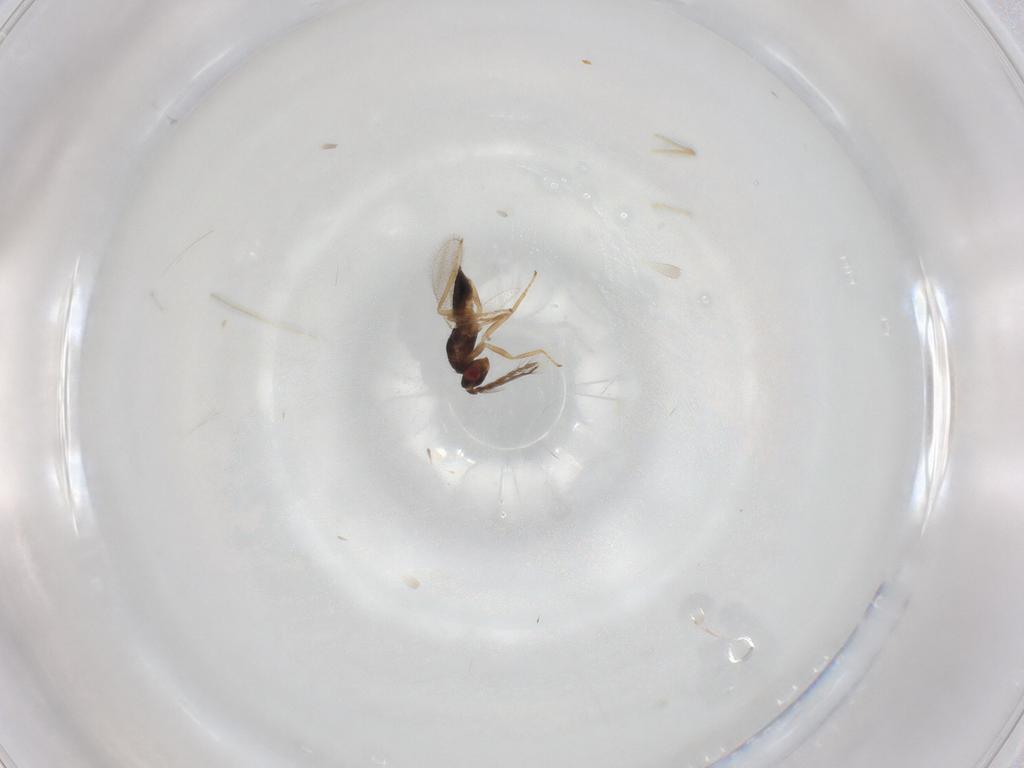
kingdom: Animalia
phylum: Arthropoda
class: Insecta
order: Hymenoptera
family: Eulophidae
